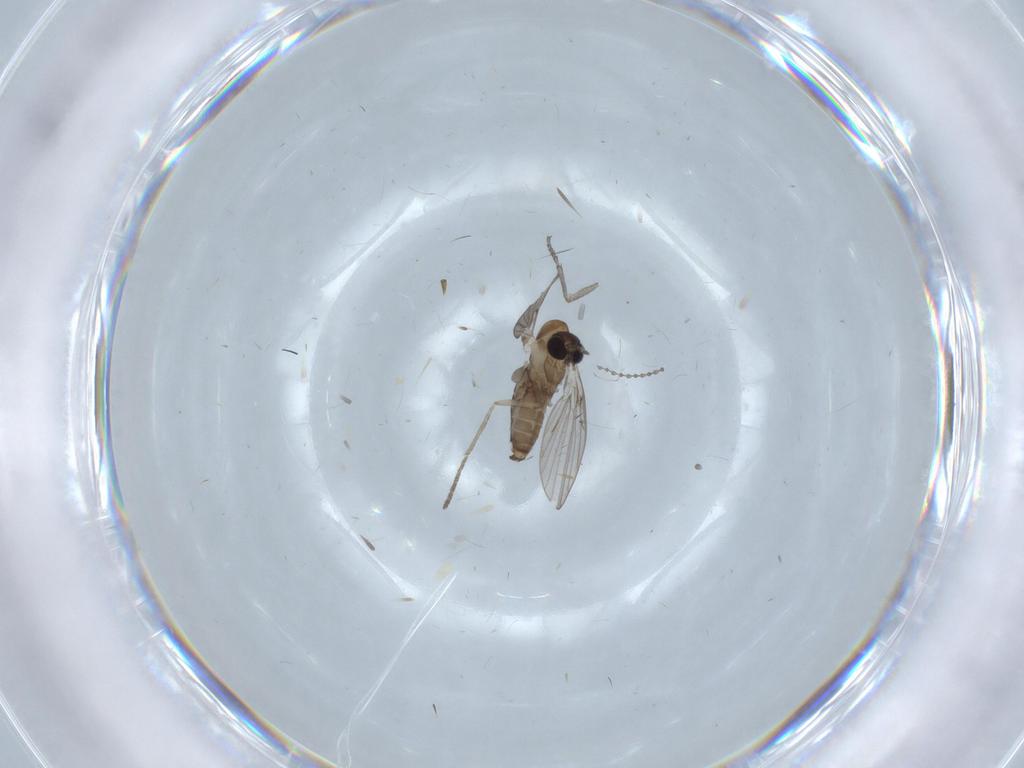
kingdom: Animalia
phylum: Arthropoda
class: Insecta
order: Diptera
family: Psychodidae
